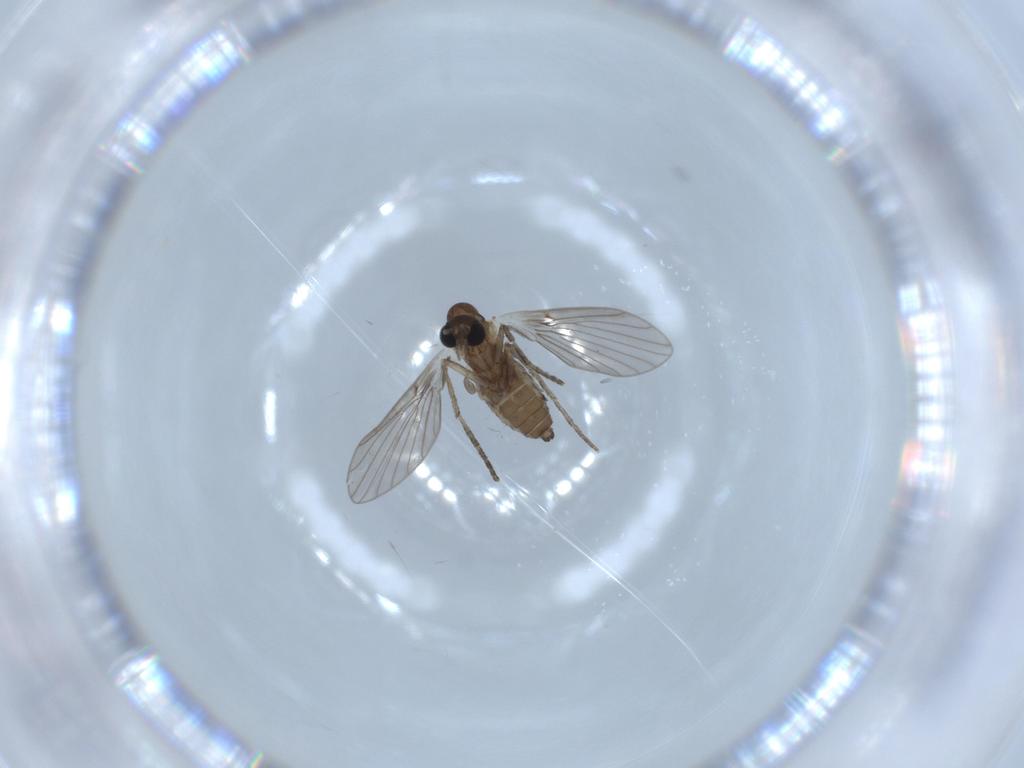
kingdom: Animalia
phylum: Arthropoda
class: Insecta
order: Diptera
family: Psychodidae
